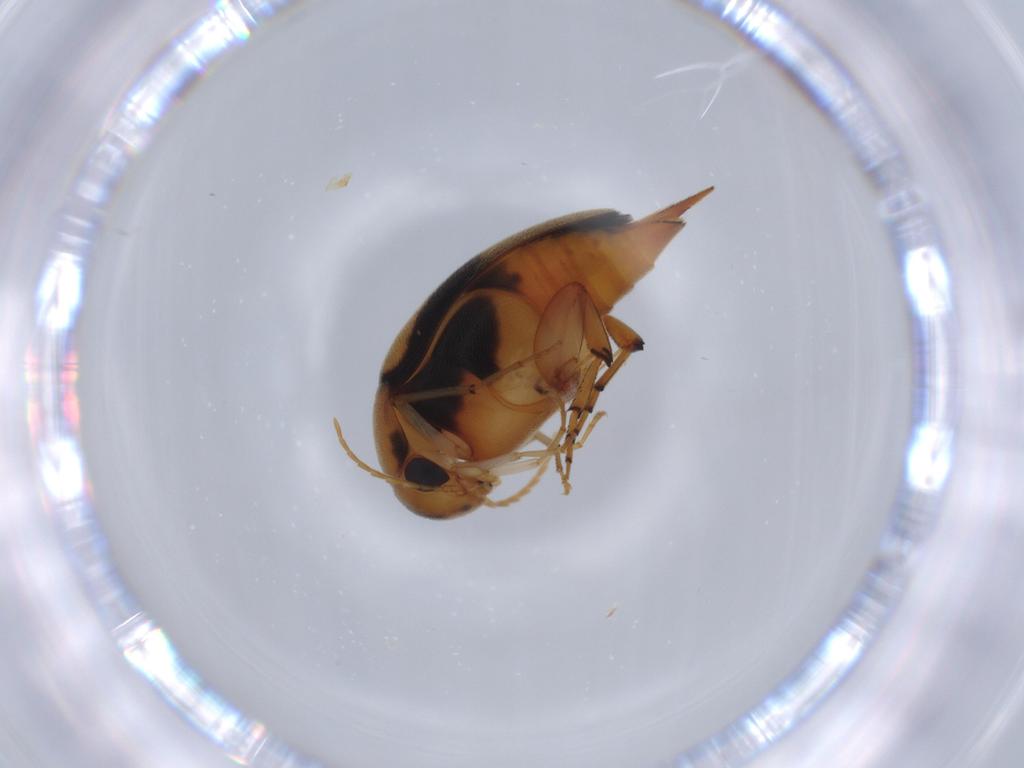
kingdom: Animalia
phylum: Arthropoda
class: Insecta
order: Coleoptera
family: Mordellidae
